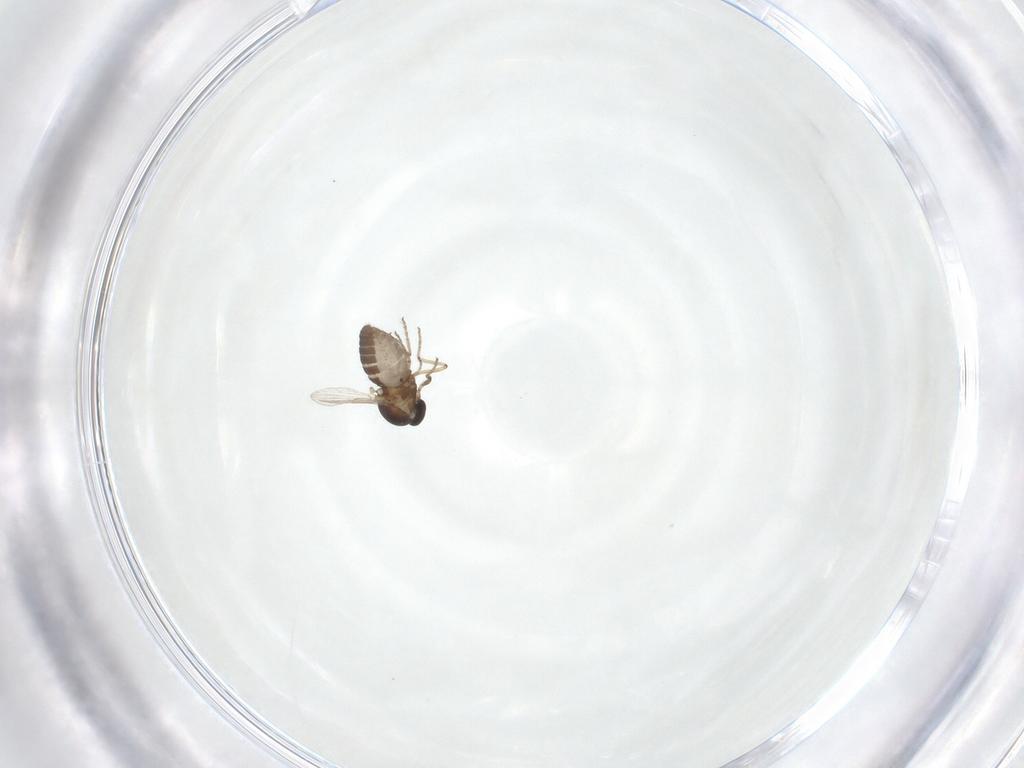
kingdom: Animalia
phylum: Arthropoda
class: Insecta
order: Diptera
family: Ceratopogonidae
